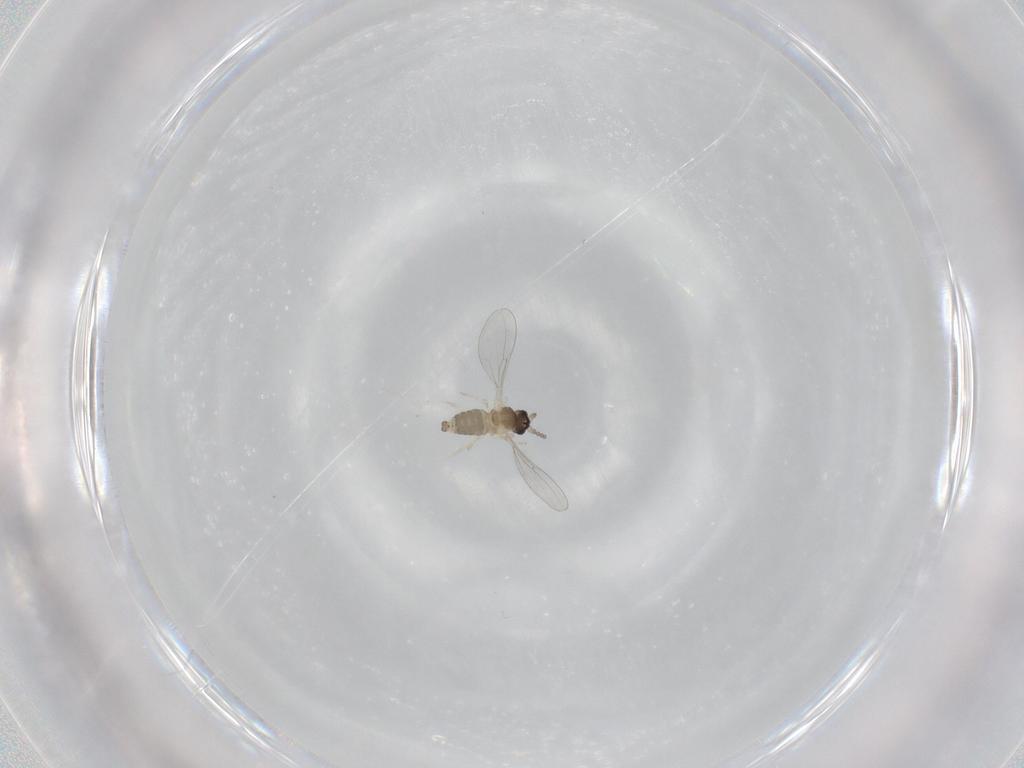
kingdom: Animalia
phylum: Arthropoda
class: Insecta
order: Diptera
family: Cecidomyiidae
